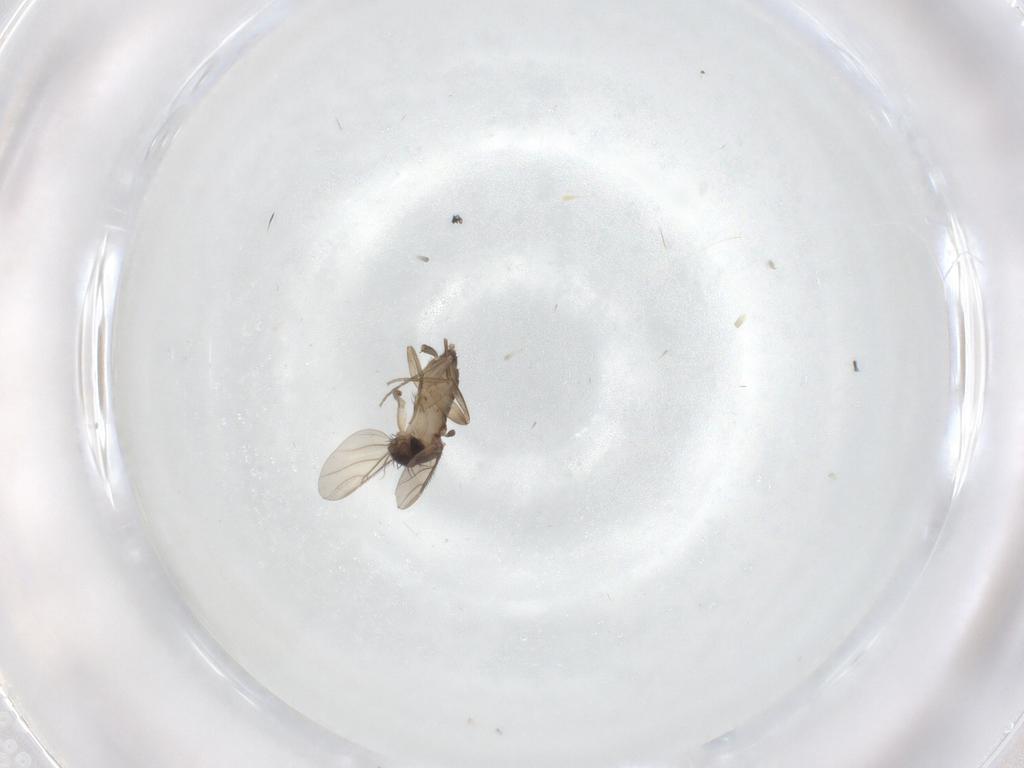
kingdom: Animalia
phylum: Arthropoda
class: Insecta
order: Diptera
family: Phoridae
